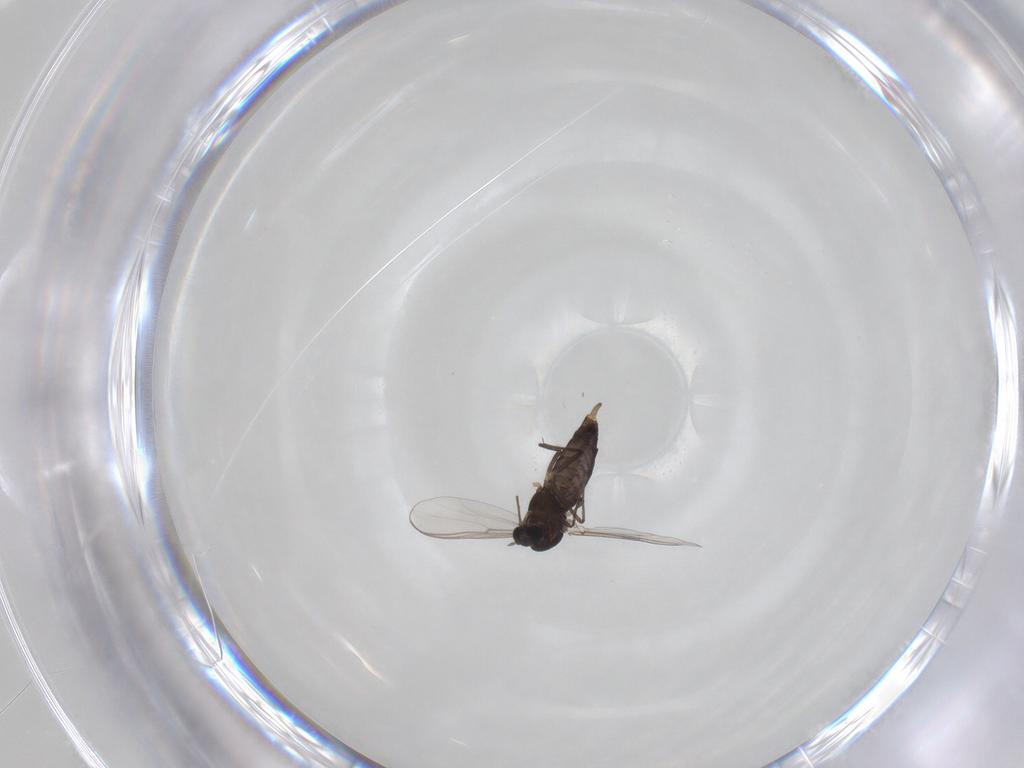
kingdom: Animalia
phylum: Arthropoda
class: Insecta
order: Diptera
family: Chironomidae
